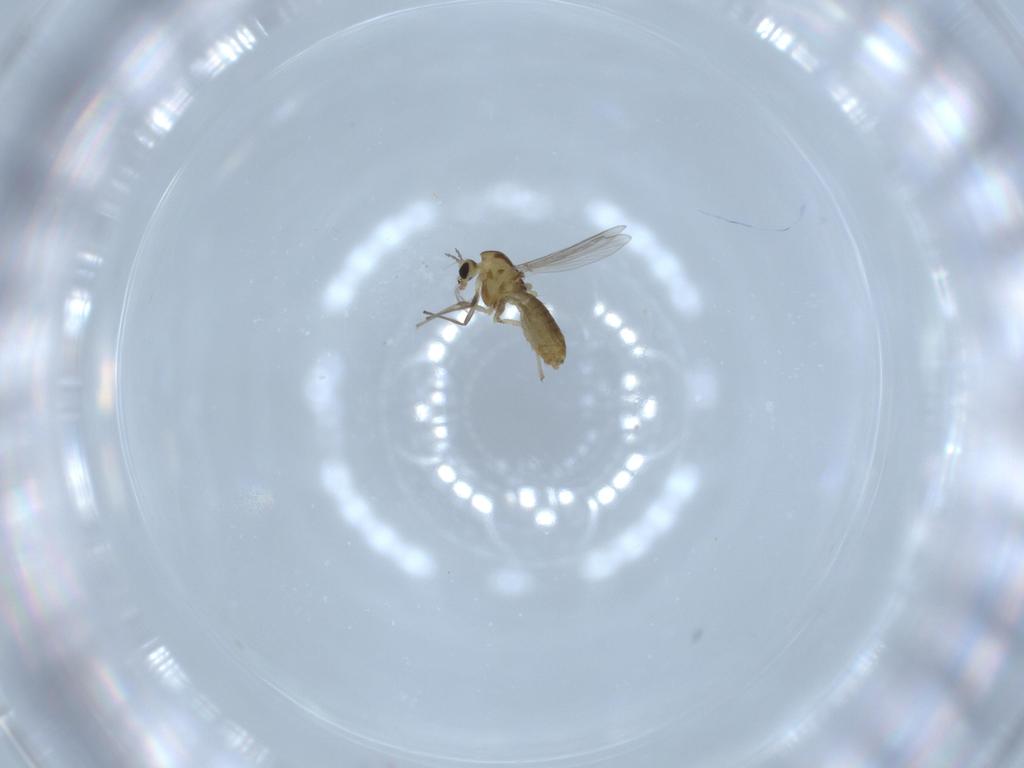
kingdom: Animalia
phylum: Arthropoda
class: Insecta
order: Diptera
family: Chironomidae
